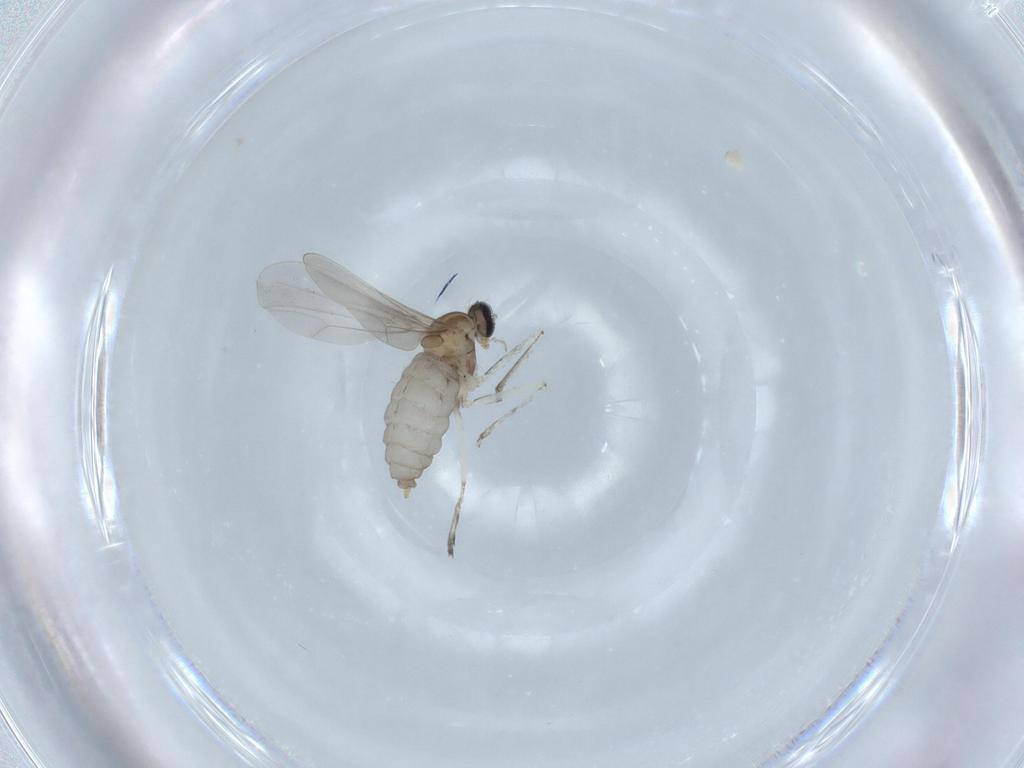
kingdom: Animalia
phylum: Arthropoda
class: Insecta
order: Diptera
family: Cecidomyiidae
